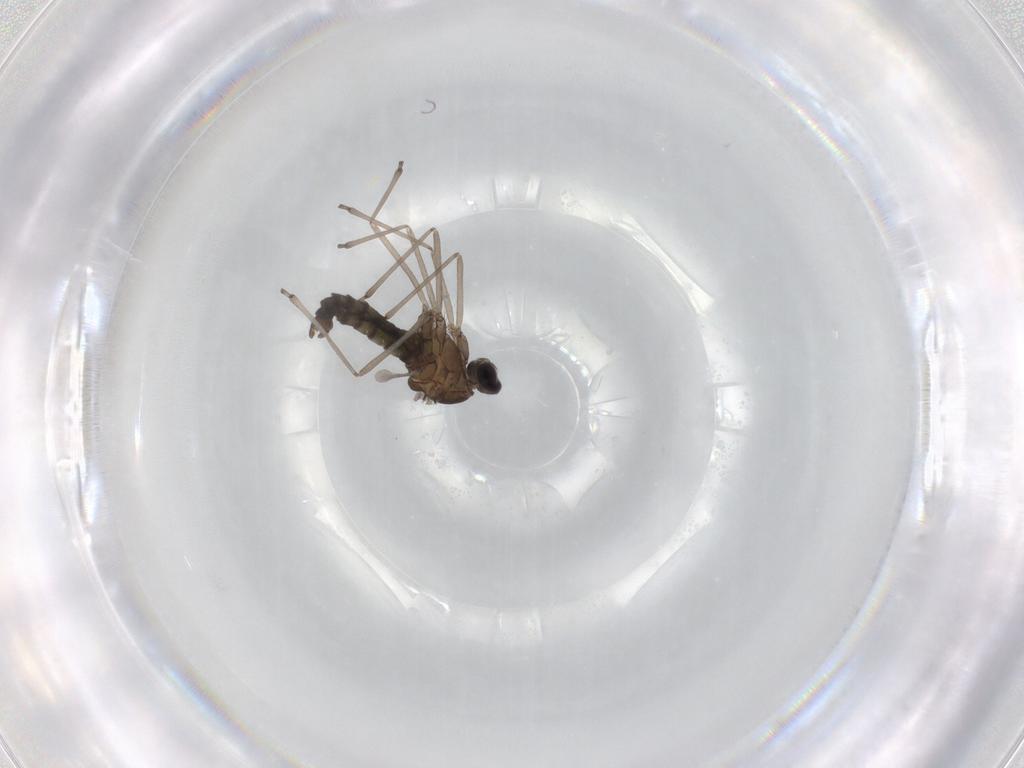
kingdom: Animalia
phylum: Arthropoda
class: Insecta
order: Diptera
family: Cecidomyiidae
